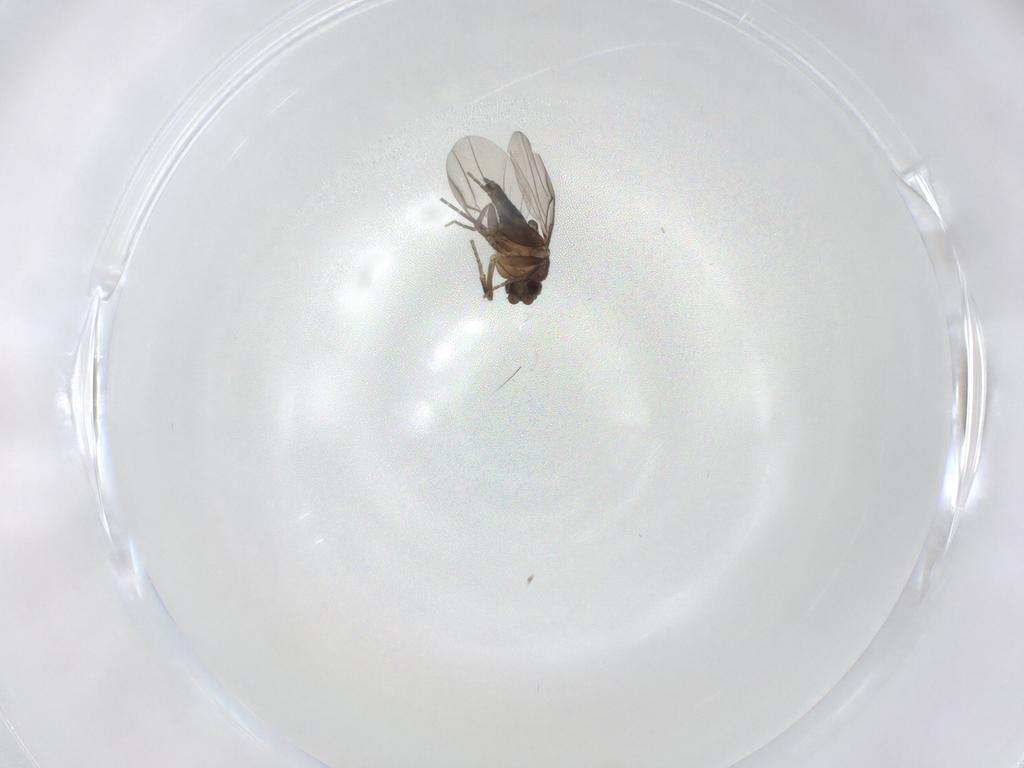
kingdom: Animalia
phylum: Arthropoda
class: Insecta
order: Diptera
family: Phoridae
